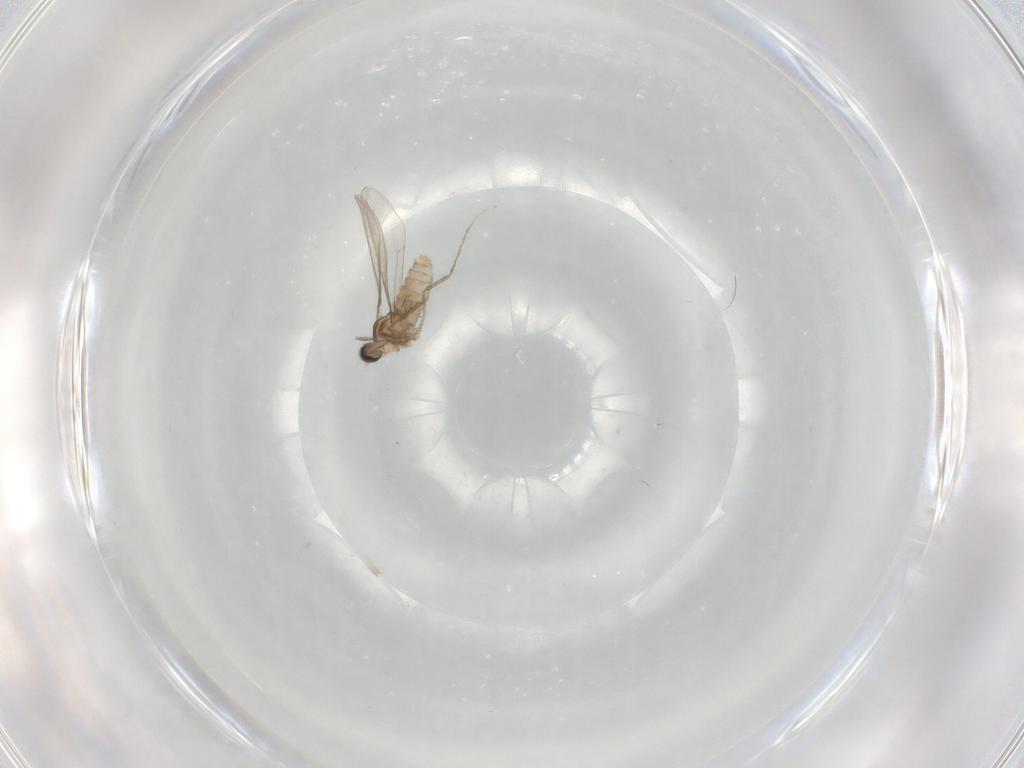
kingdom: Animalia
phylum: Arthropoda
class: Insecta
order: Diptera
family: Cecidomyiidae
